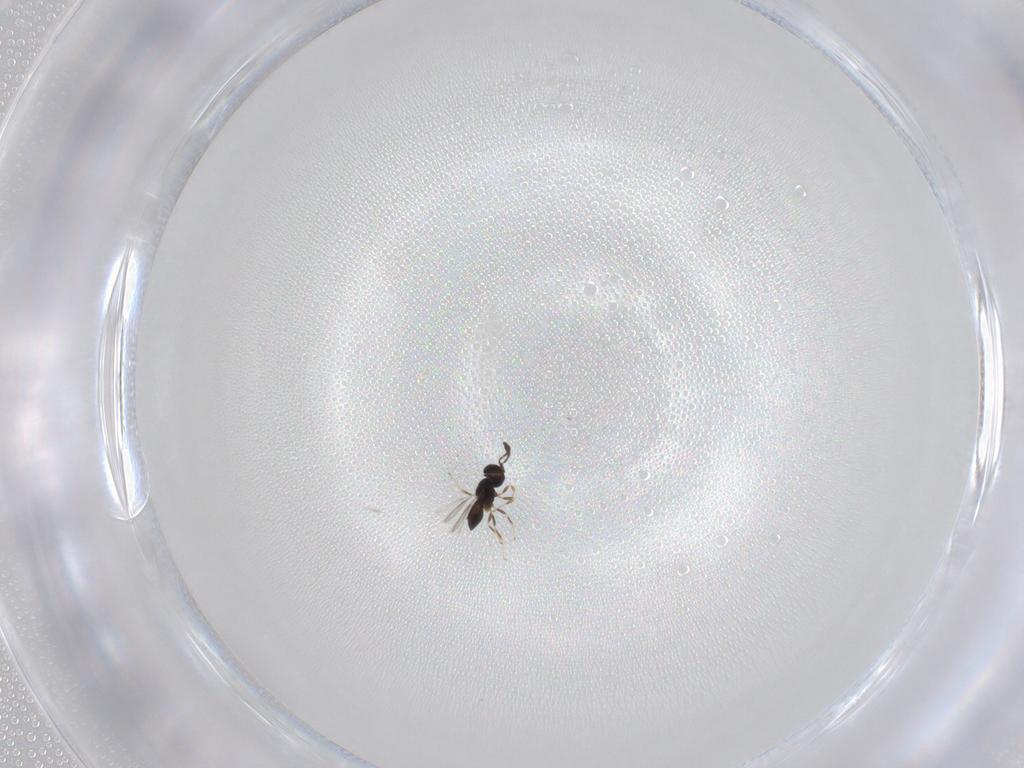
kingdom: Animalia
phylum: Arthropoda
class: Insecta
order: Hymenoptera
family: Scelionidae
